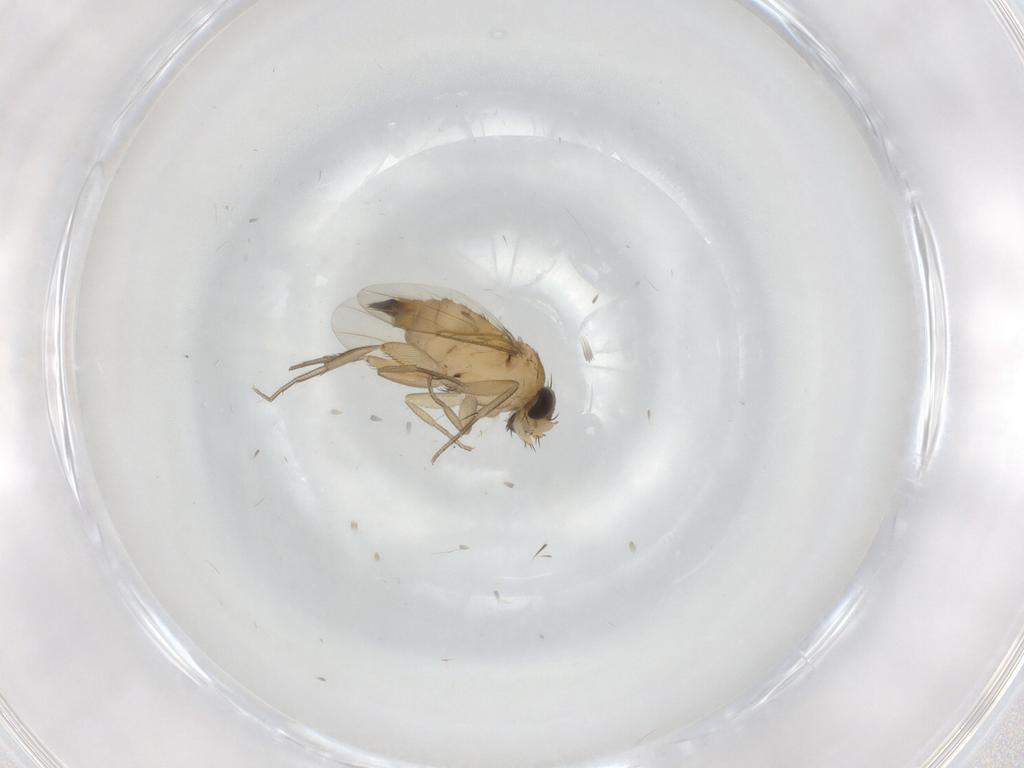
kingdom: Animalia
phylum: Arthropoda
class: Insecta
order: Diptera
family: Phoridae
